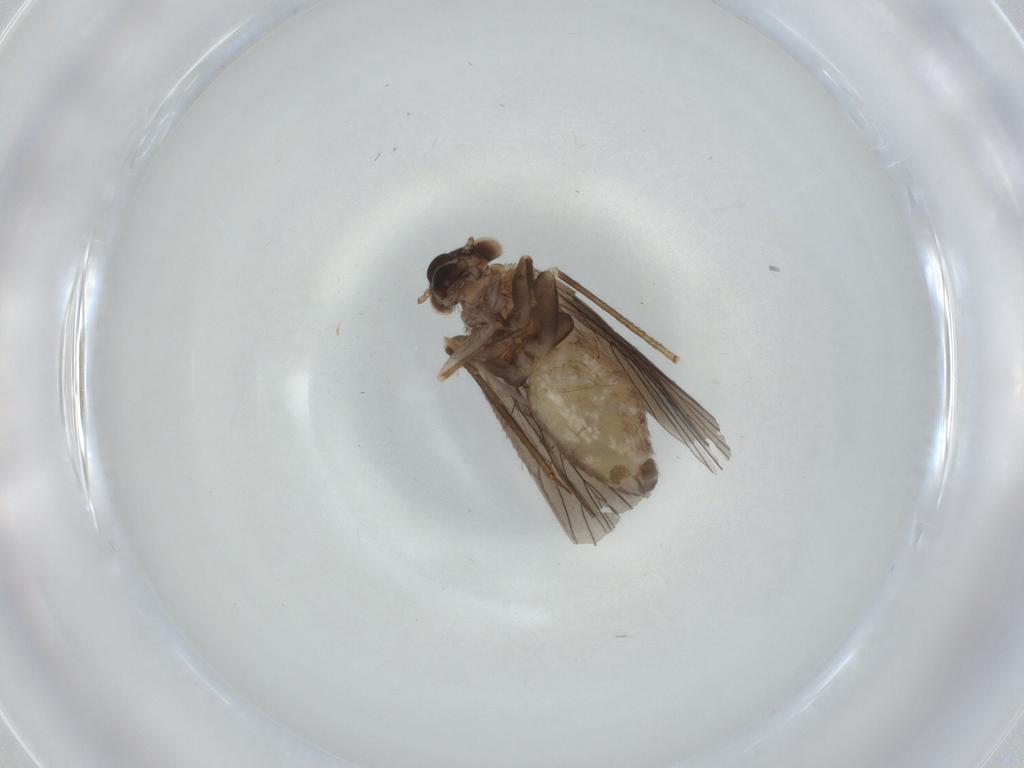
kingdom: Animalia
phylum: Arthropoda
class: Insecta
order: Psocodea
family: Lepidopsocidae
